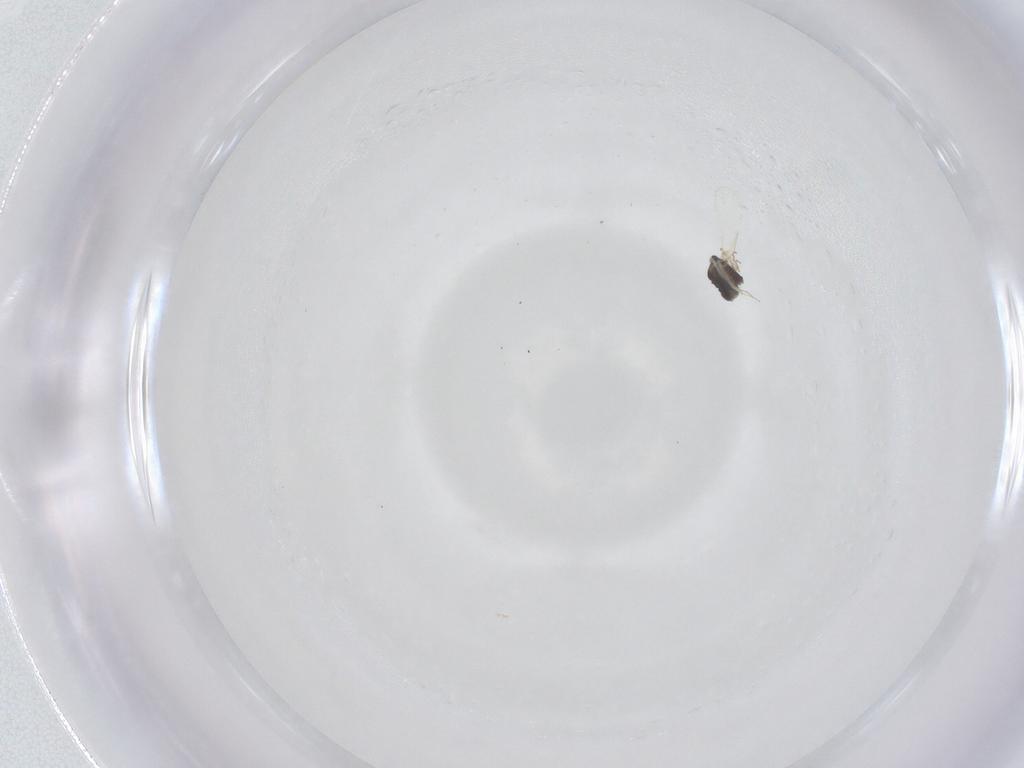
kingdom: Animalia
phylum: Arthropoda
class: Insecta
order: Diptera
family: Chironomidae
